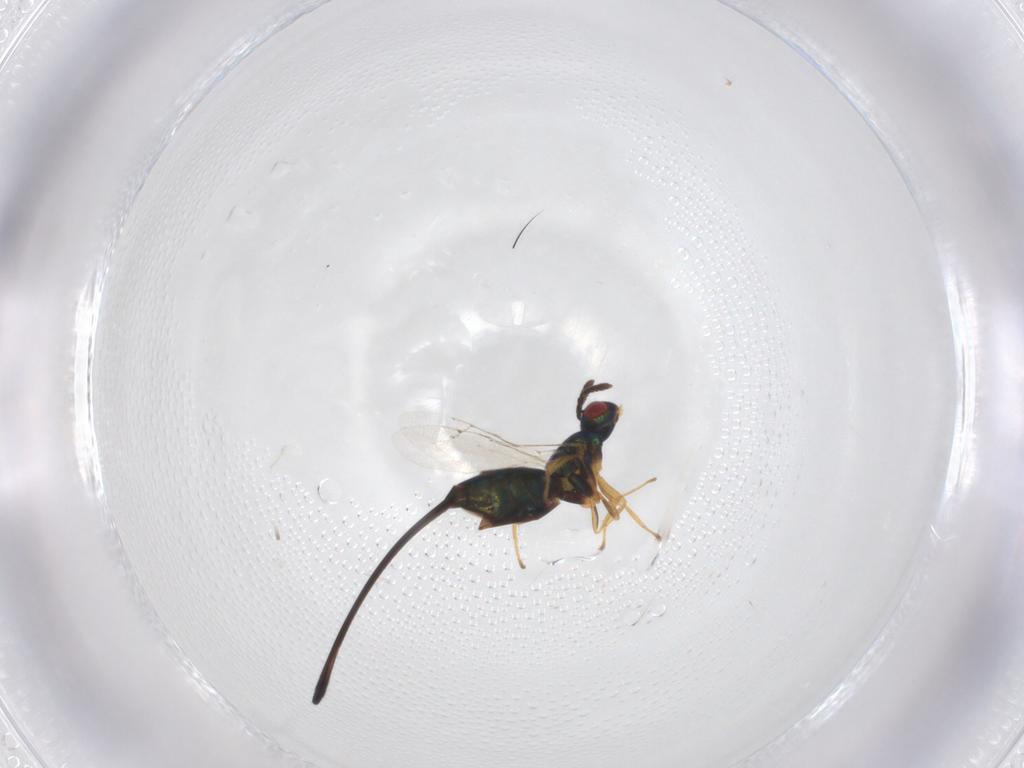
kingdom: Animalia
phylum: Arthropoda
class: Insecta
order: Hymenoptera
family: Pteromalidae
